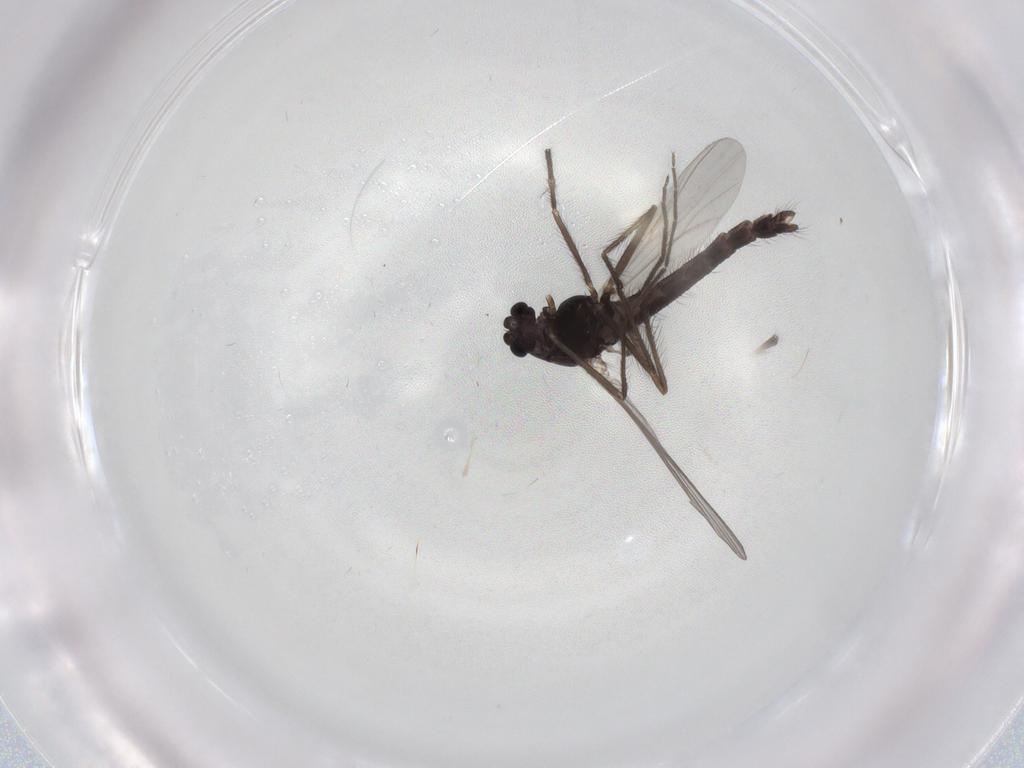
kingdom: Animalia
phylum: Arthropoda
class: Insecta
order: Diptera
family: Chironomidae
